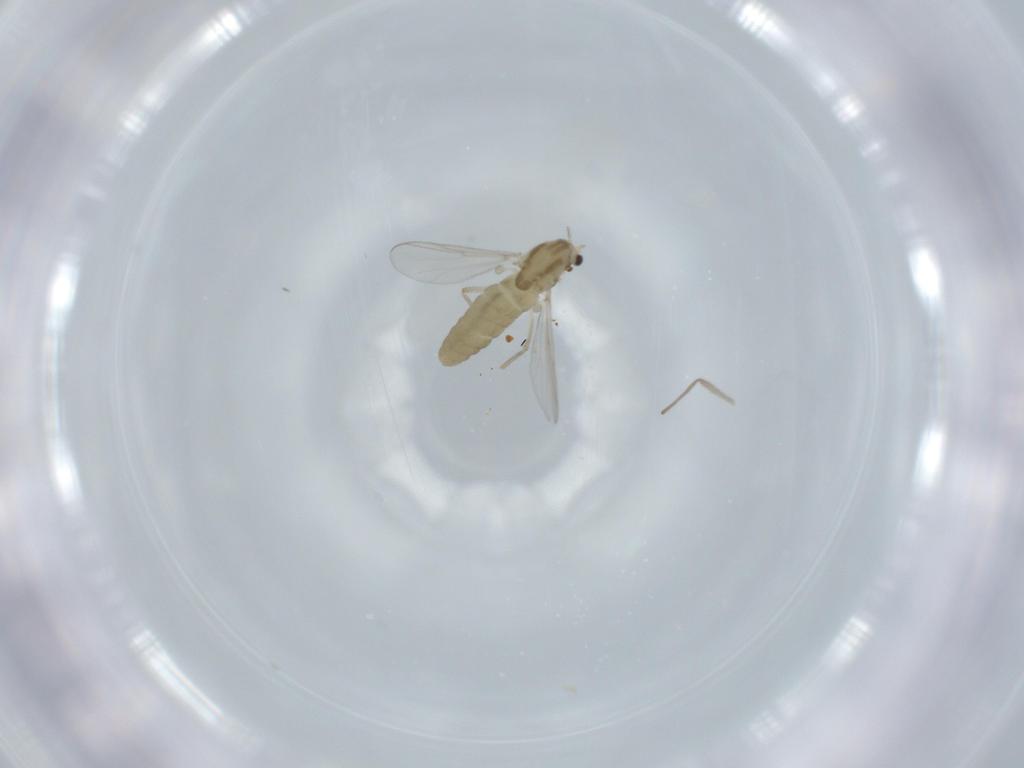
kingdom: Animalia
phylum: Arthropoda
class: Insecta
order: Diptera
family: Chironomidae
